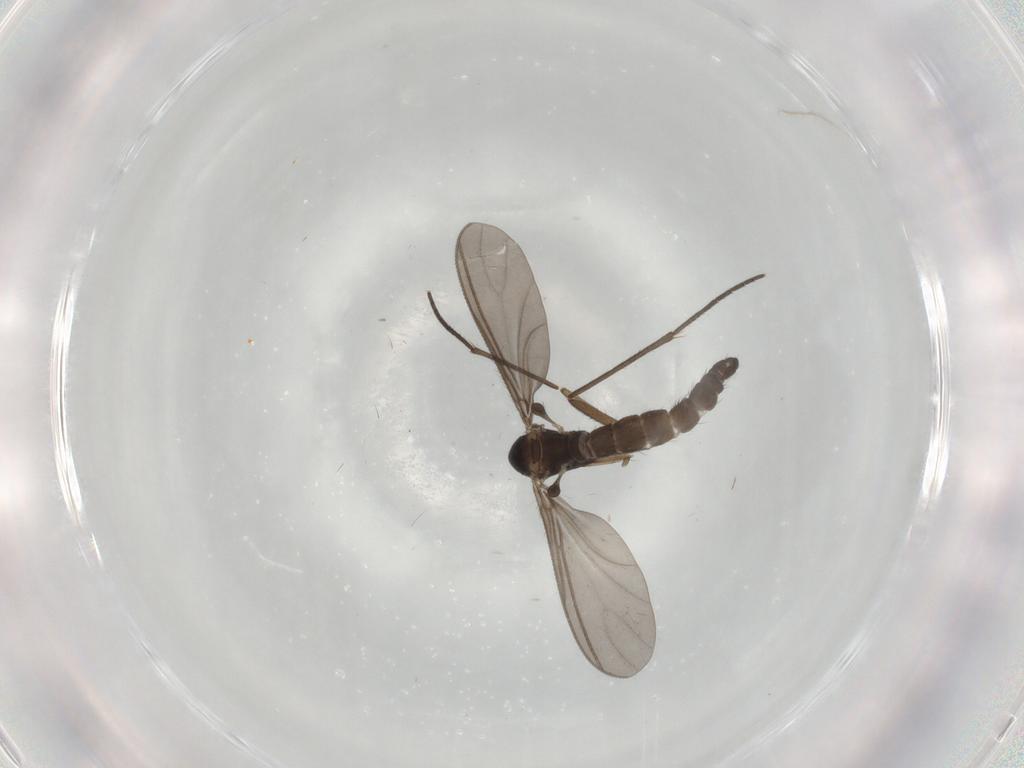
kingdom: Animalia
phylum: Arthropoda
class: Insecta
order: Diptera
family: Sciaridae
